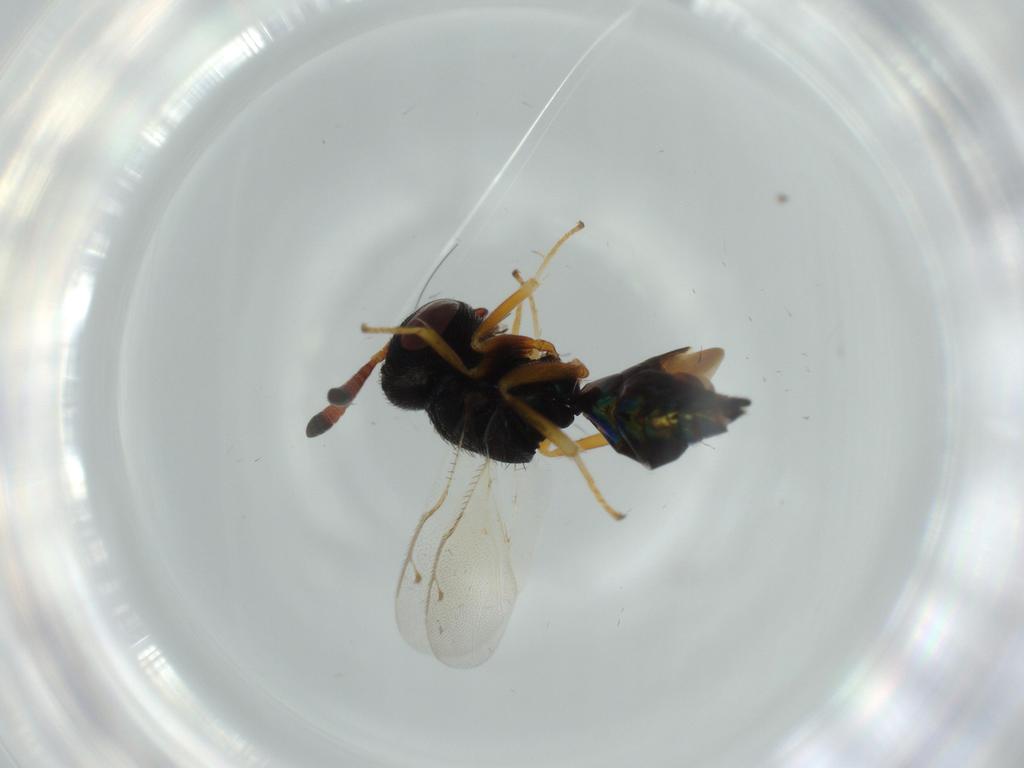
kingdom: Animalia
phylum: Arthropoda
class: Insecta
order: Hymenoptera
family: Pteromalidae
